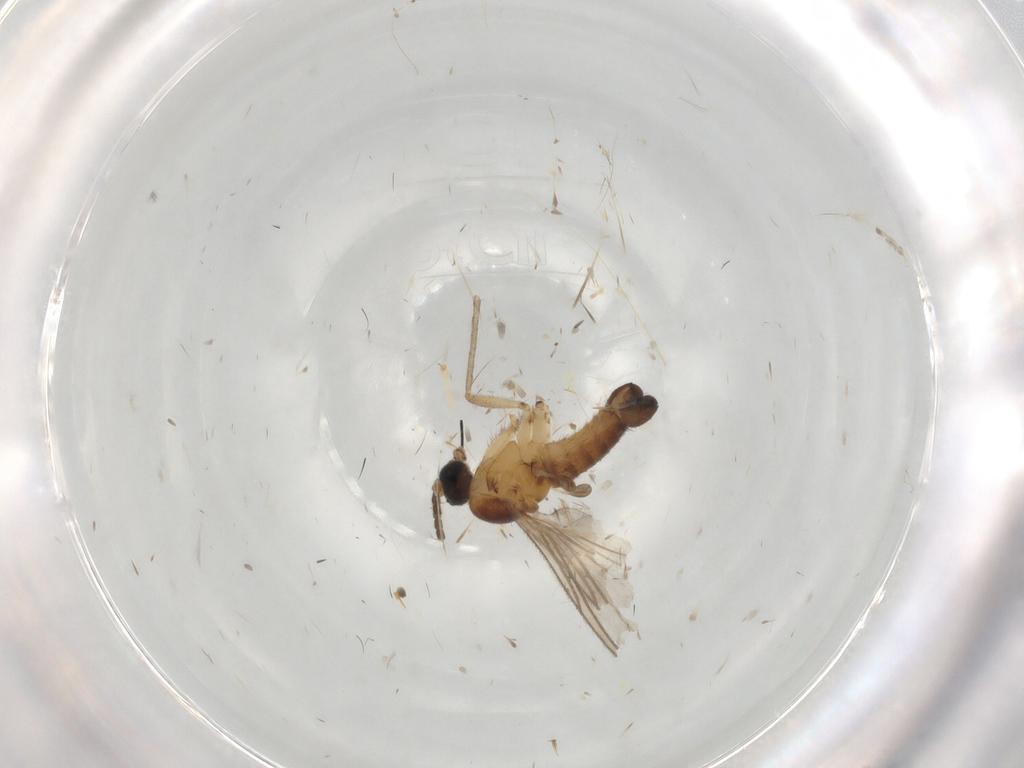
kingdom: Animalia
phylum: Arthropoda
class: Insecta
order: Diptera
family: Sciaridae
